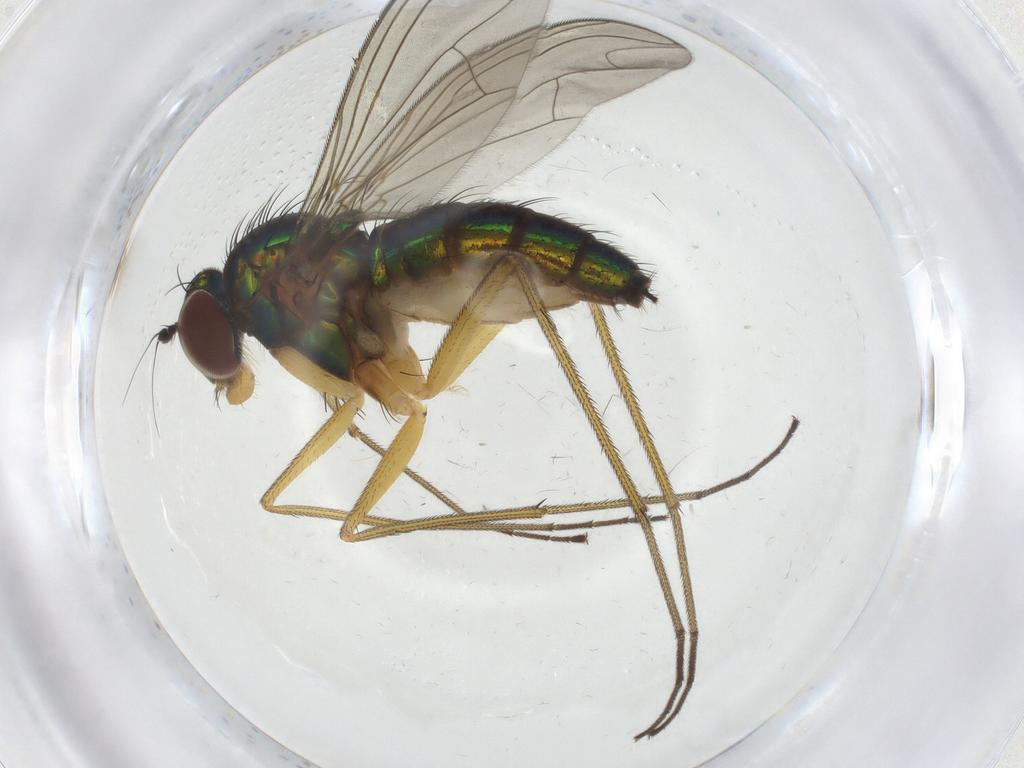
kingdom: Animalia
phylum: Arthropoda
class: Insecta
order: Diptera
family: Dolichopodidae
